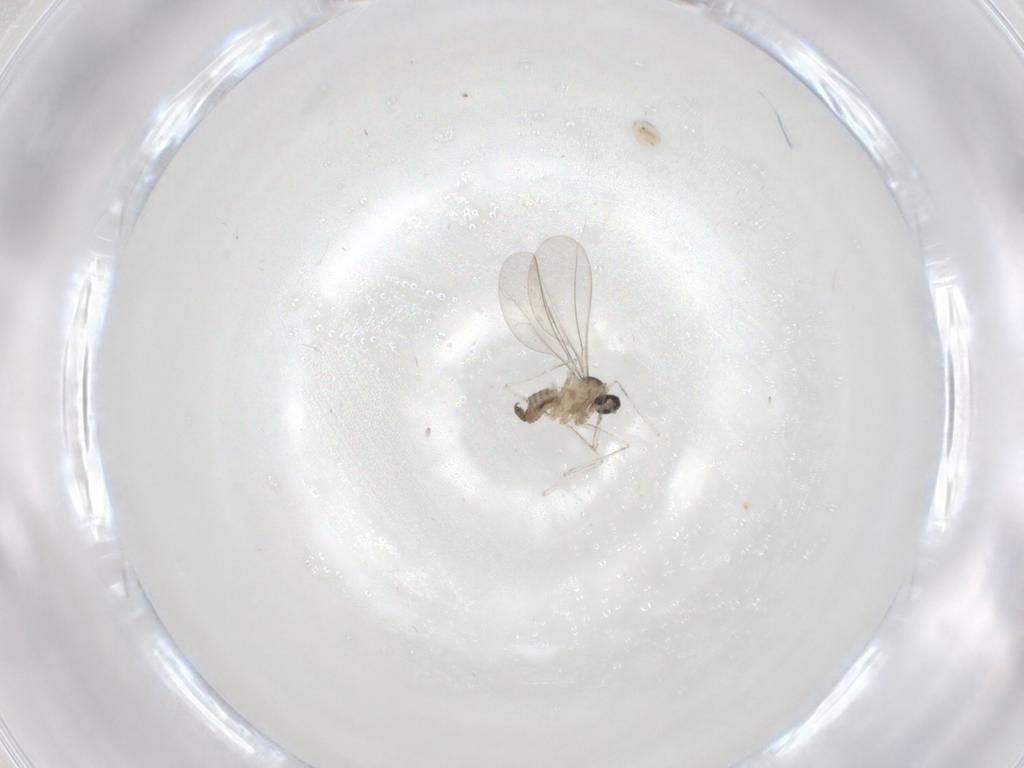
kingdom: Animalia
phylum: Arthropoda
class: Insecta
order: Diptera
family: Cecidomyiidae
